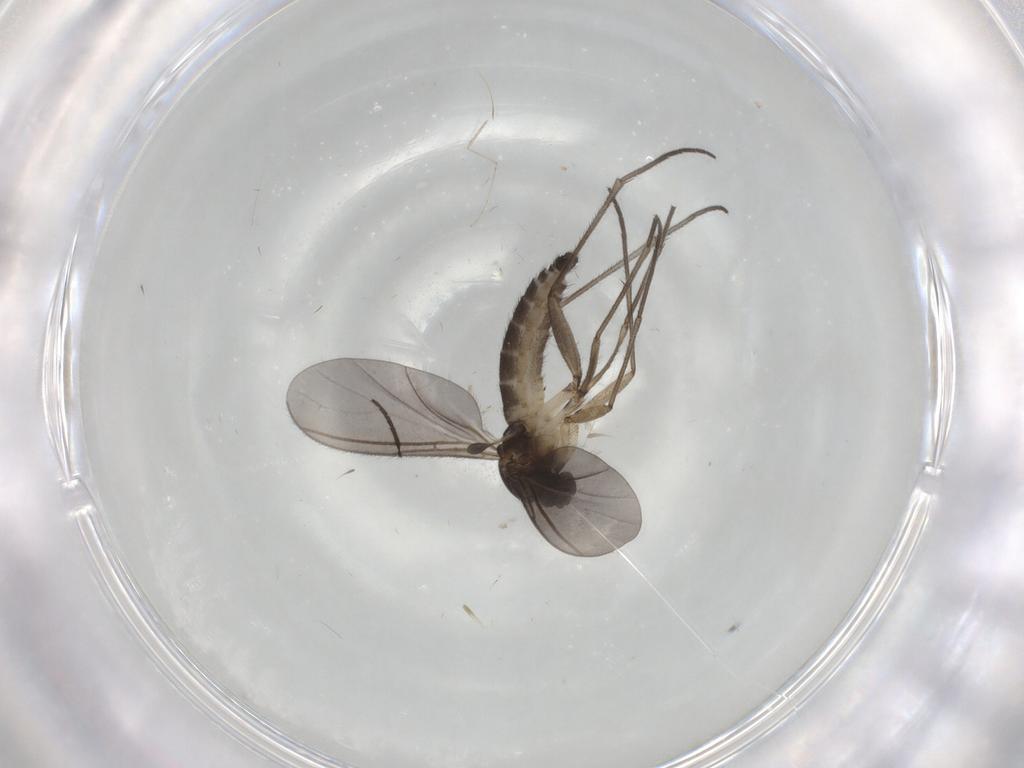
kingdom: Animalia
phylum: Arthropoda
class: Insecta
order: Diptera
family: Sciaridae
